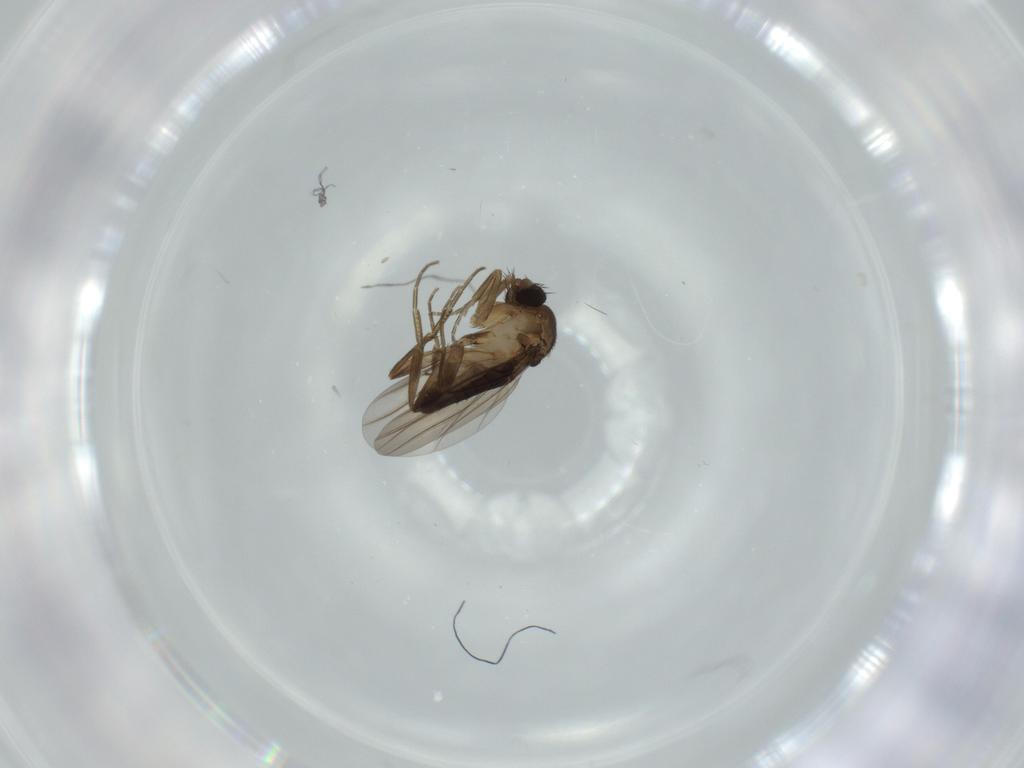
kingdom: Animalia
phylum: Arthropoda
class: Insecta
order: Diptera
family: Phoridae
